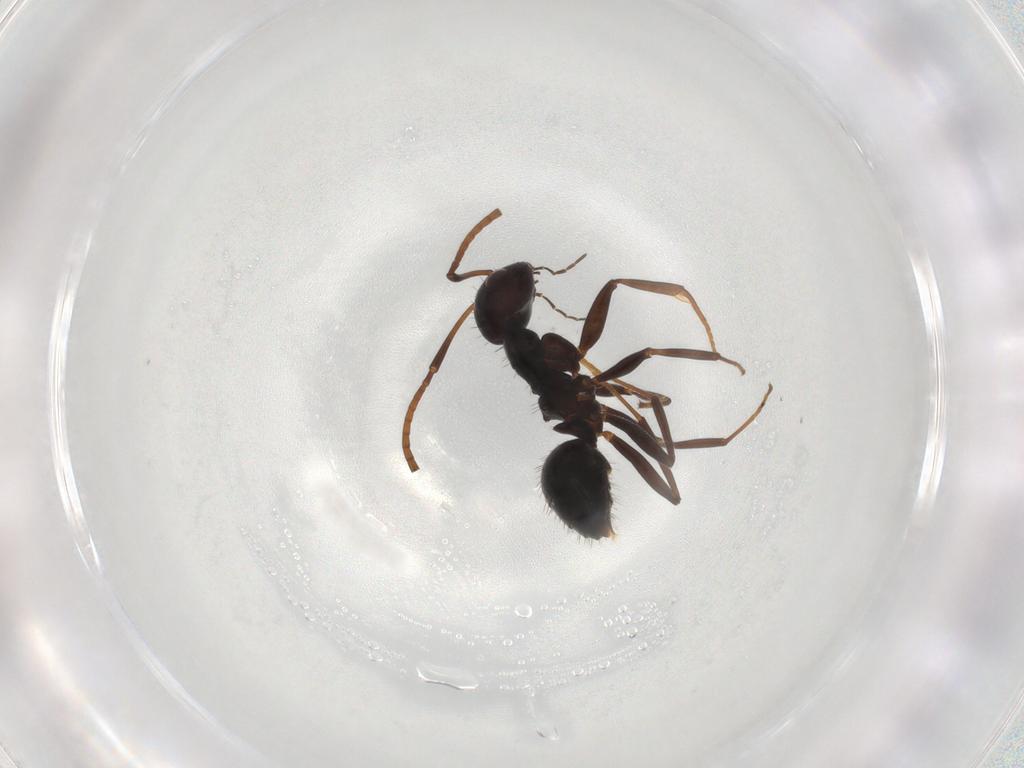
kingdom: Animalia
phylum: Arthropoda
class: Insecta
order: Hymenoptera
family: Formicidae
